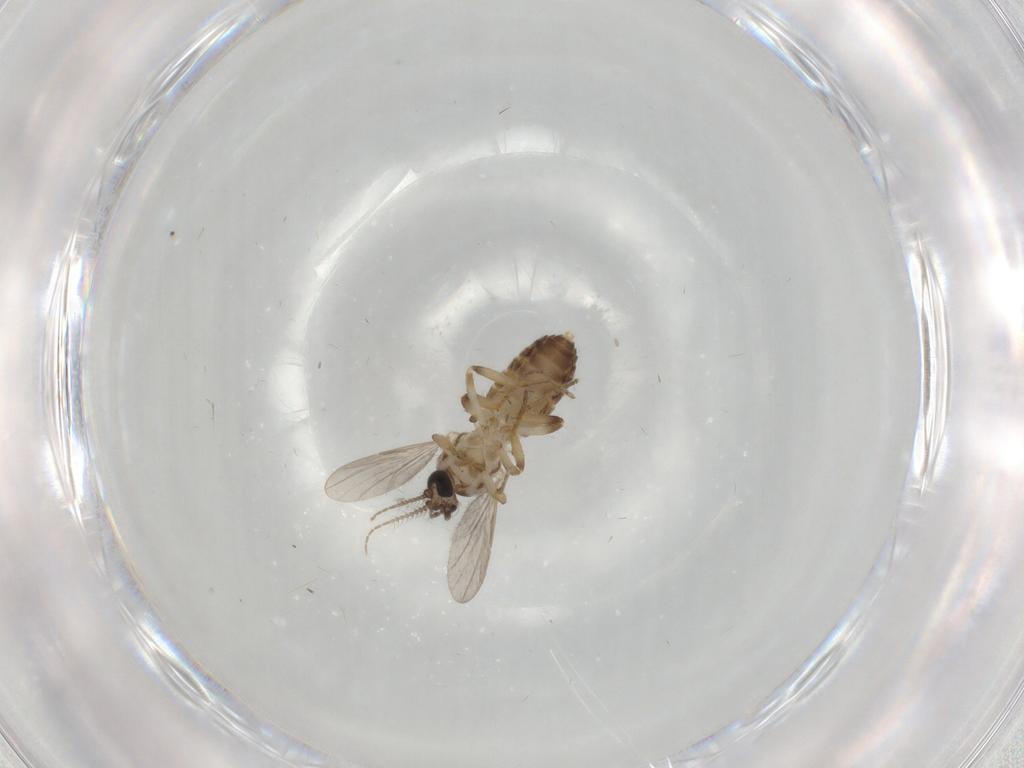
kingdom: Animalia
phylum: Arthropoda
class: Insecta
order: Diptera
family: Ceratopogonidae
